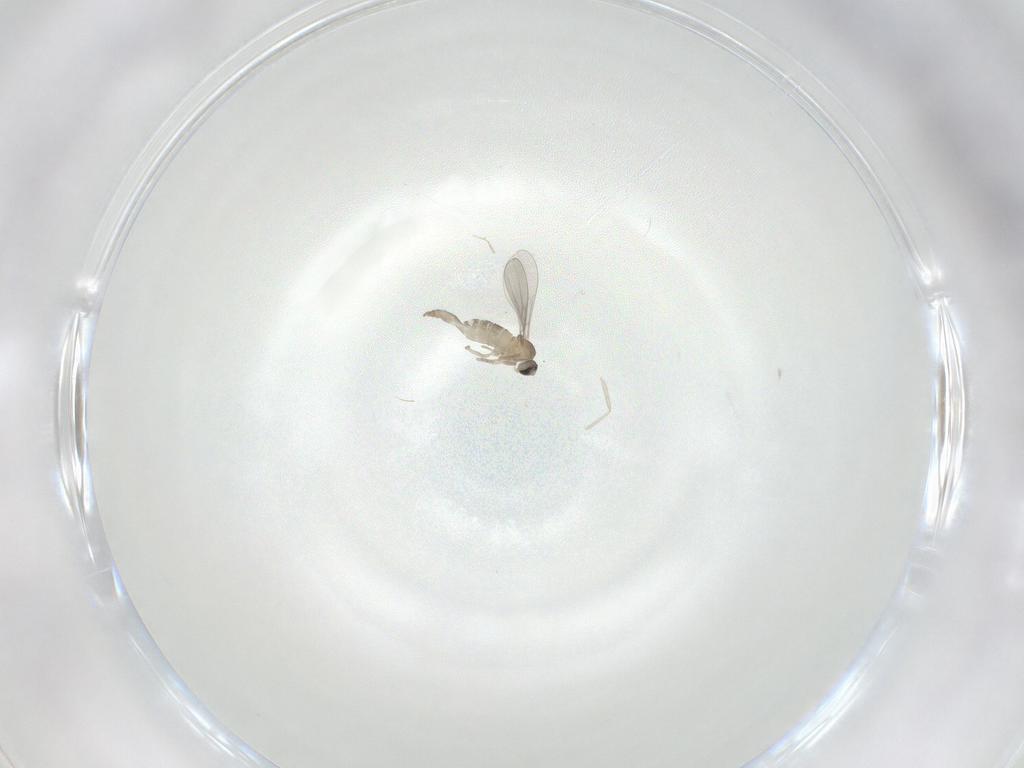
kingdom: Animalia
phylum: Arthropoda
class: Insecta
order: Diptera
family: Cecidomyiidae
